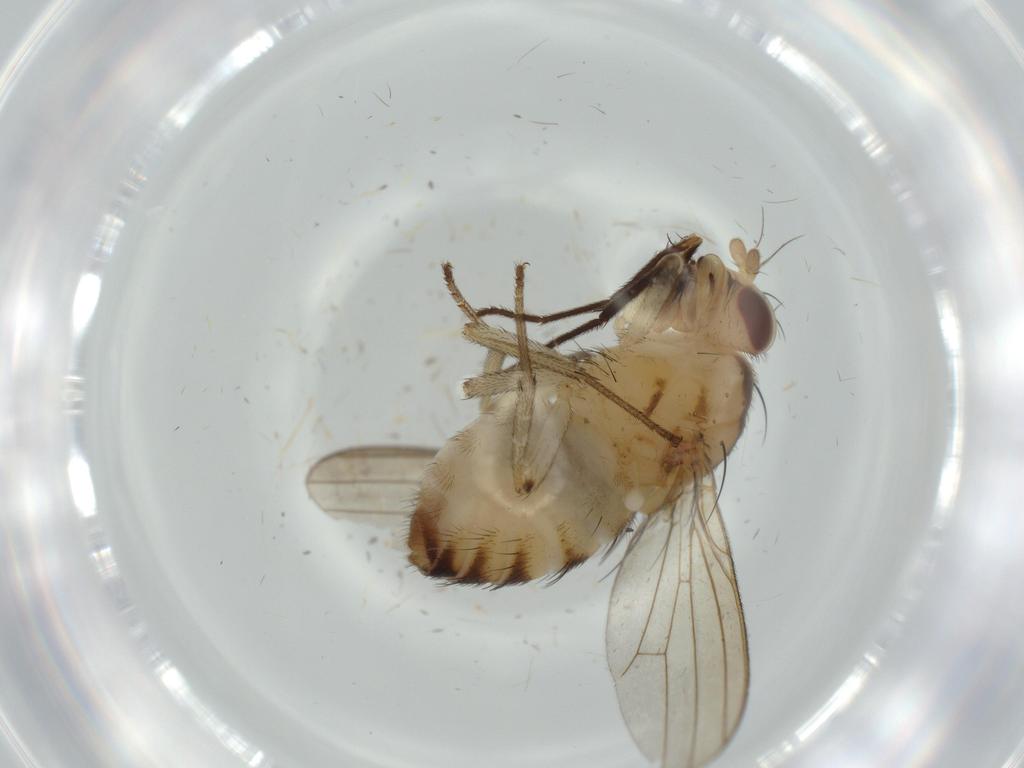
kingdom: Animalia
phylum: Arthropoda
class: Insecta
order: Diptera
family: Cecidomyiidae
